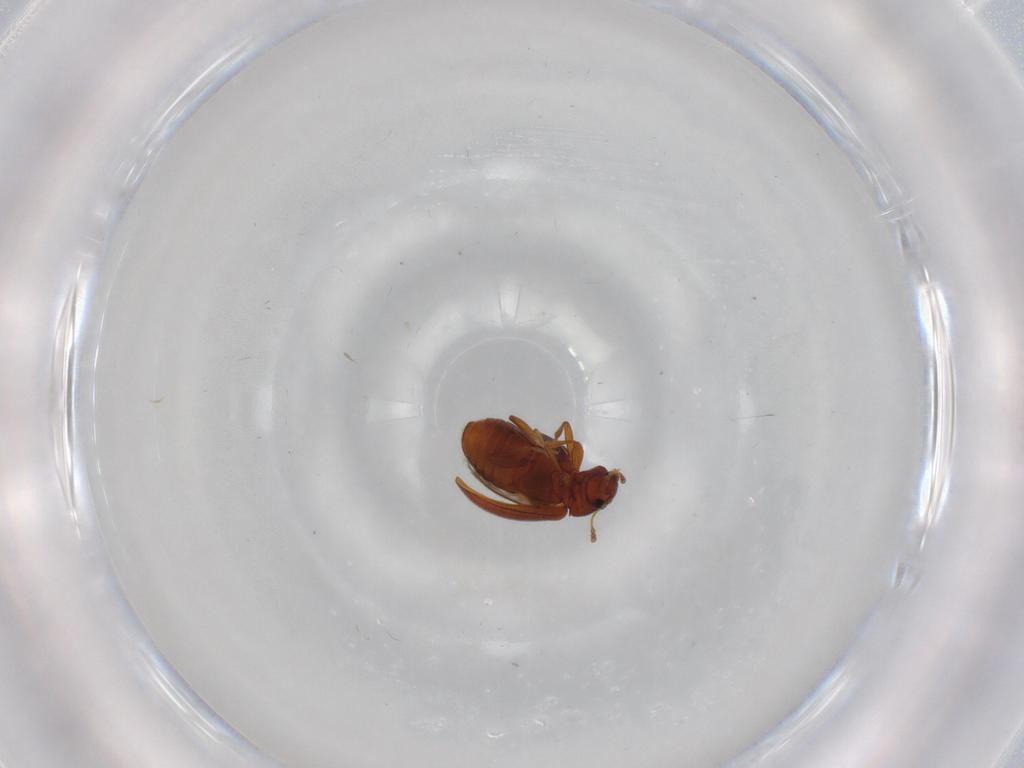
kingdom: Animalia
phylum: Arthropoda
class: Insecta
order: Coleoptera
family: Latridiidae
